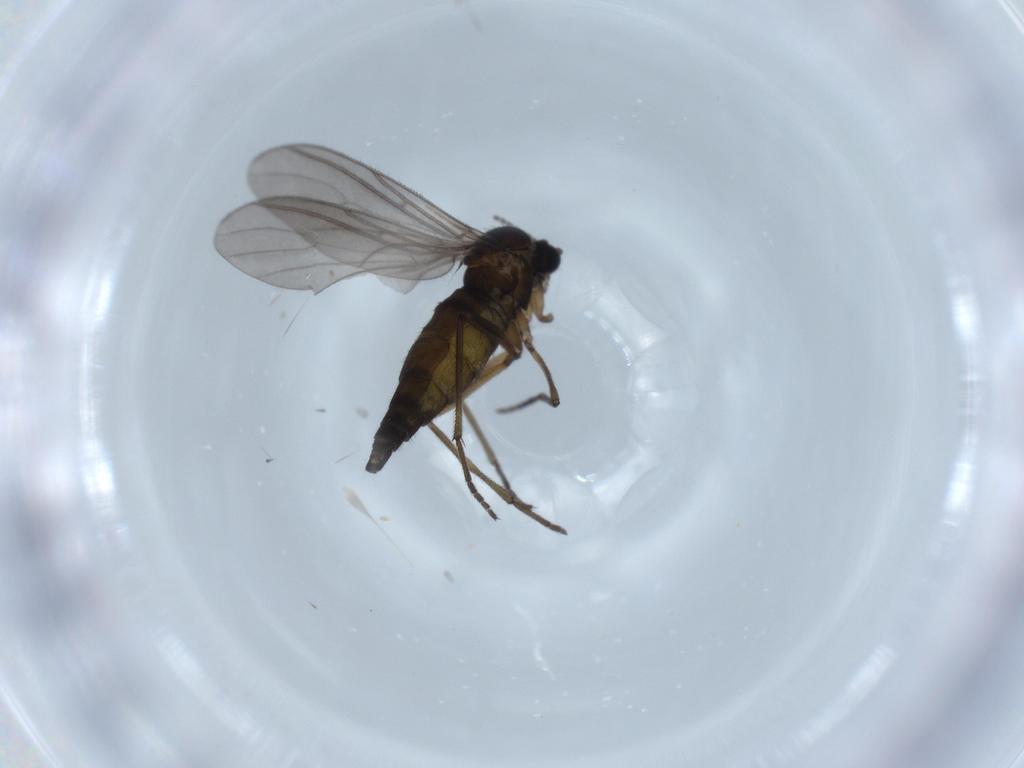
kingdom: Animalia
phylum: Arthropoda
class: Insecta
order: Diptera
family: Sciaridae
